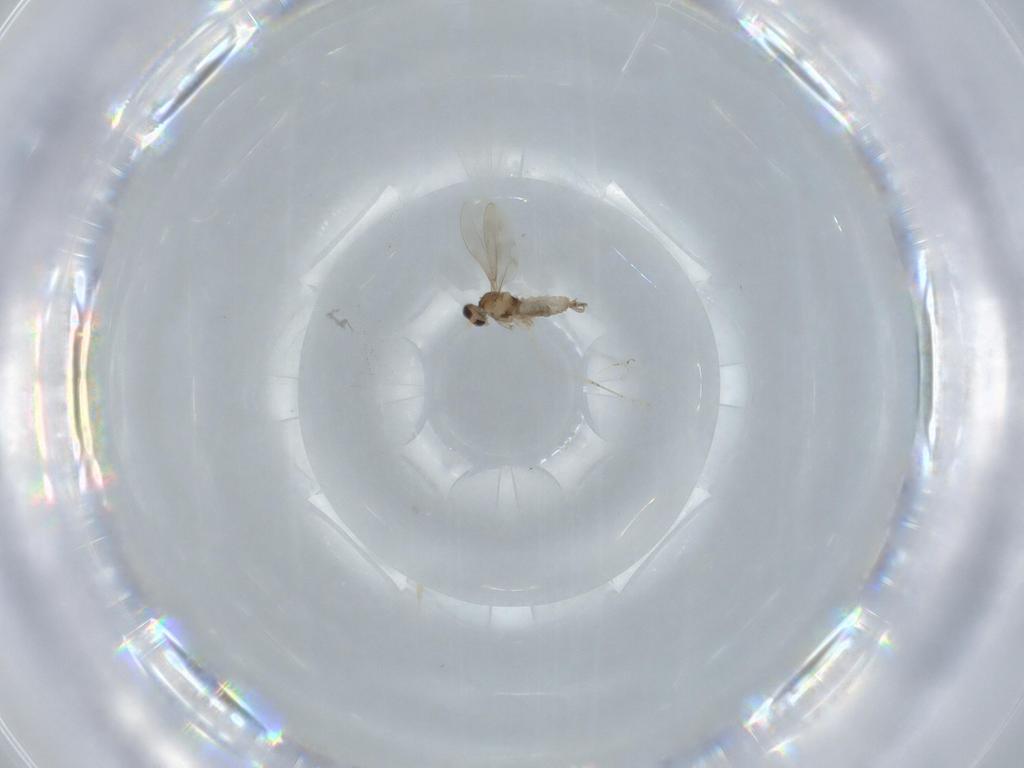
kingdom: Animalia
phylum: Arthropoda
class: Insecta
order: Diptera
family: Cecidomyiidae
